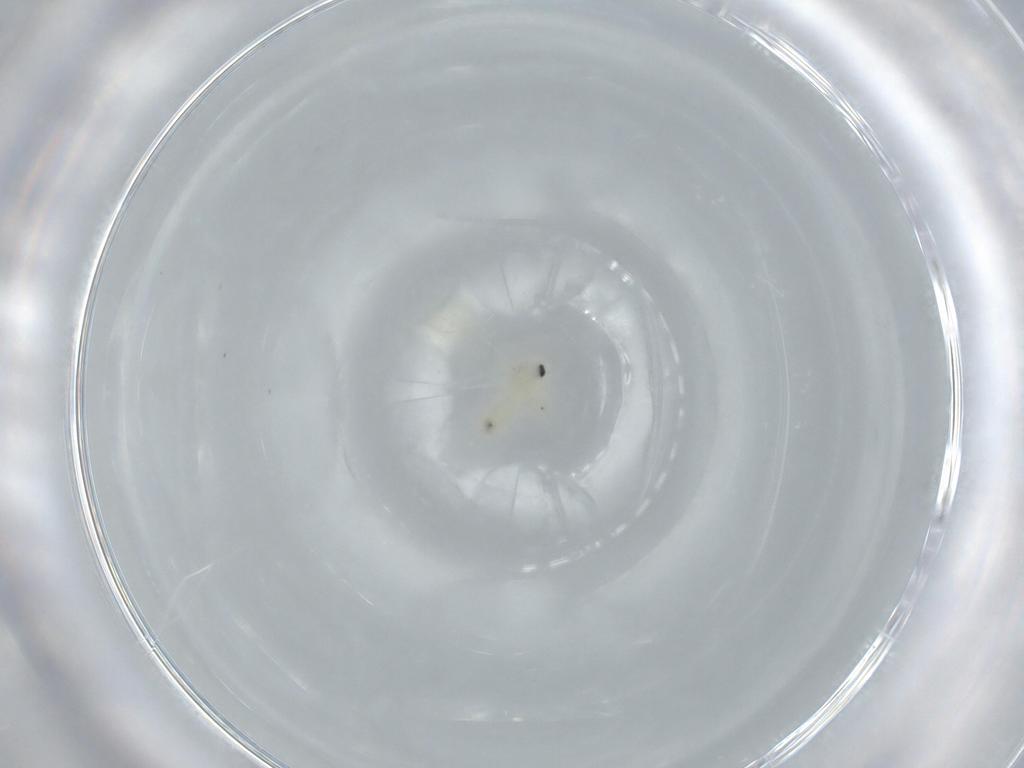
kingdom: Animalia
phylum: Arthropoda
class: Insecta
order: Hemiptera
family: Aleyrodidae
